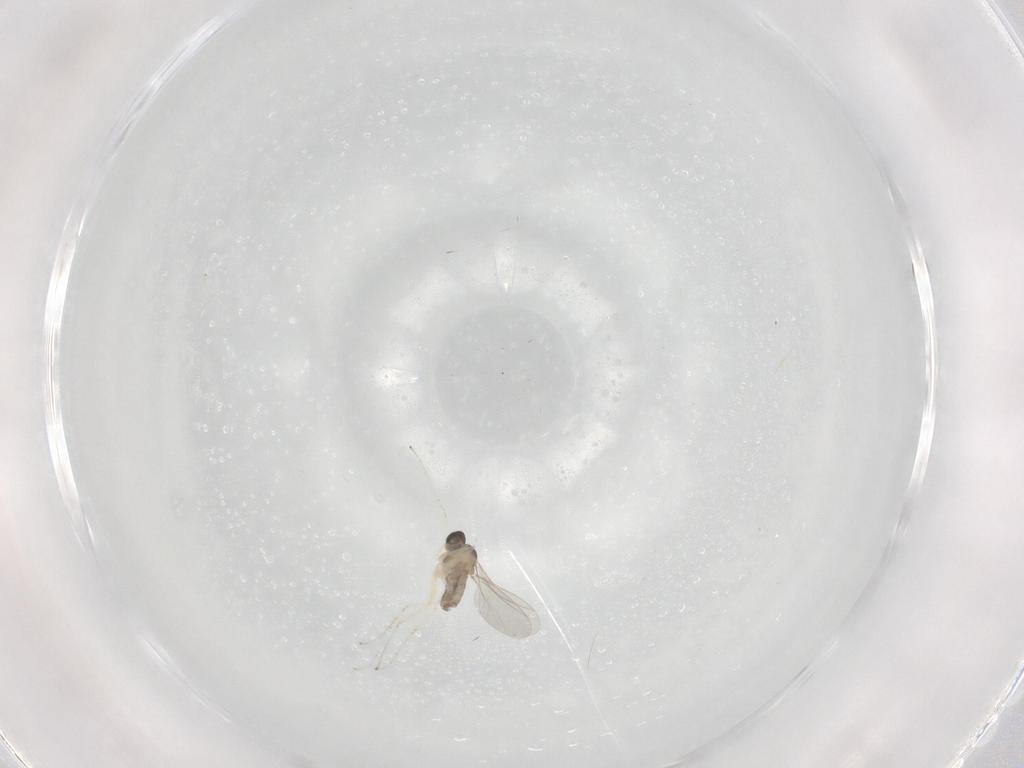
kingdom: Animalia
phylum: Arthropoda
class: Insecta
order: Diptera
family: Cecidomyiidae
